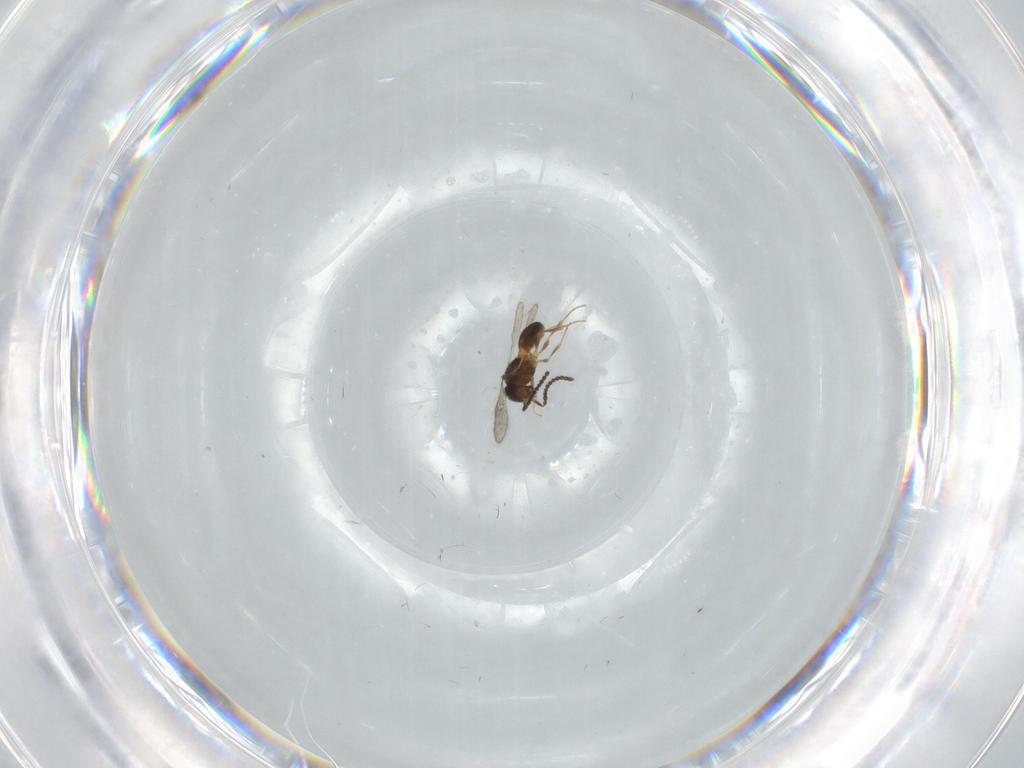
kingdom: Animalia
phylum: Arthropoda
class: Insecta
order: Hymenoptera
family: Scelionidae
